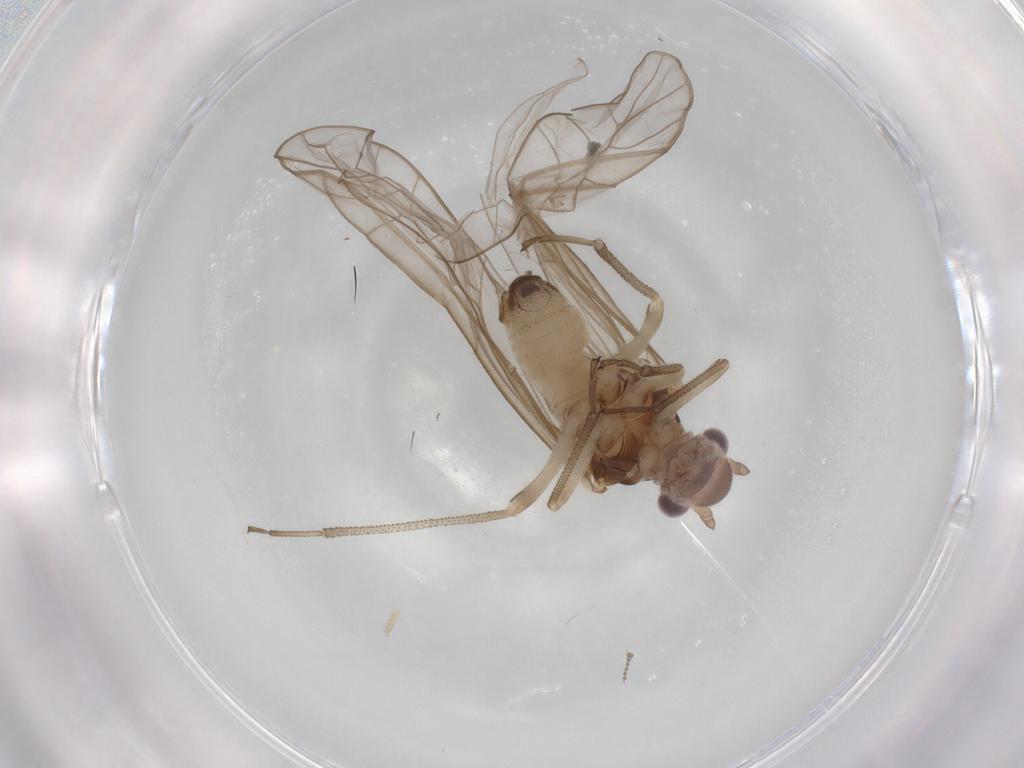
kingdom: Animalia
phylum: Arthropoda
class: Insecta
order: Psocodea
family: Stenopsocidae
